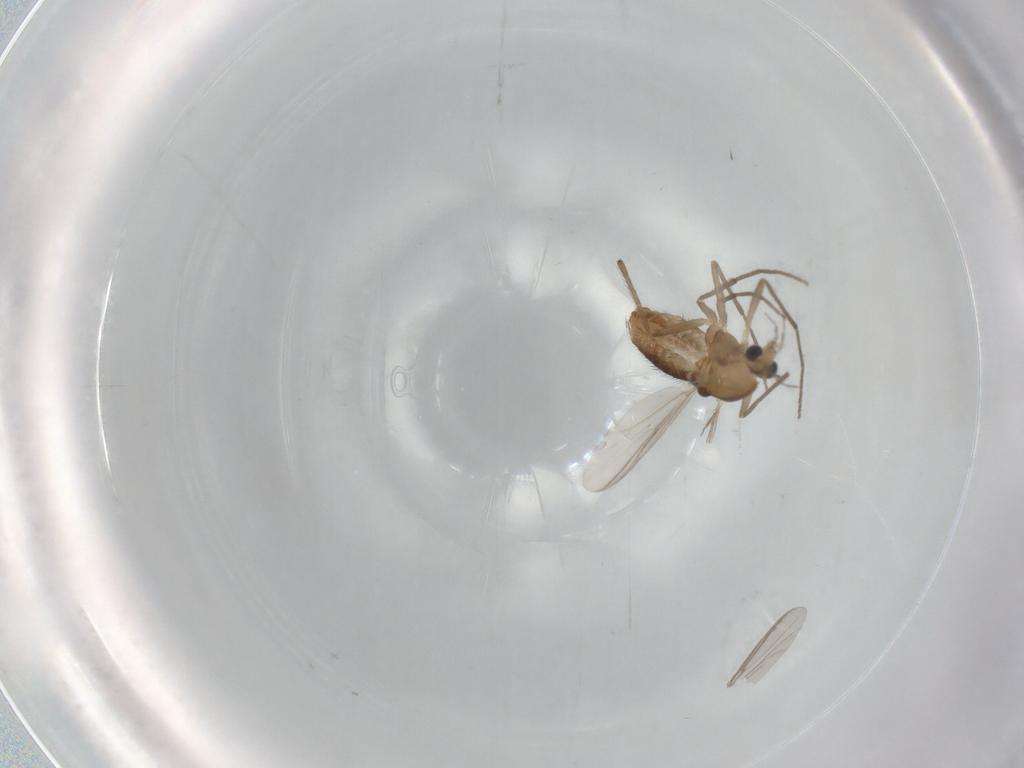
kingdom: Animalia
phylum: Arthropoda
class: Insecta
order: Diptera
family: Chironomidae
